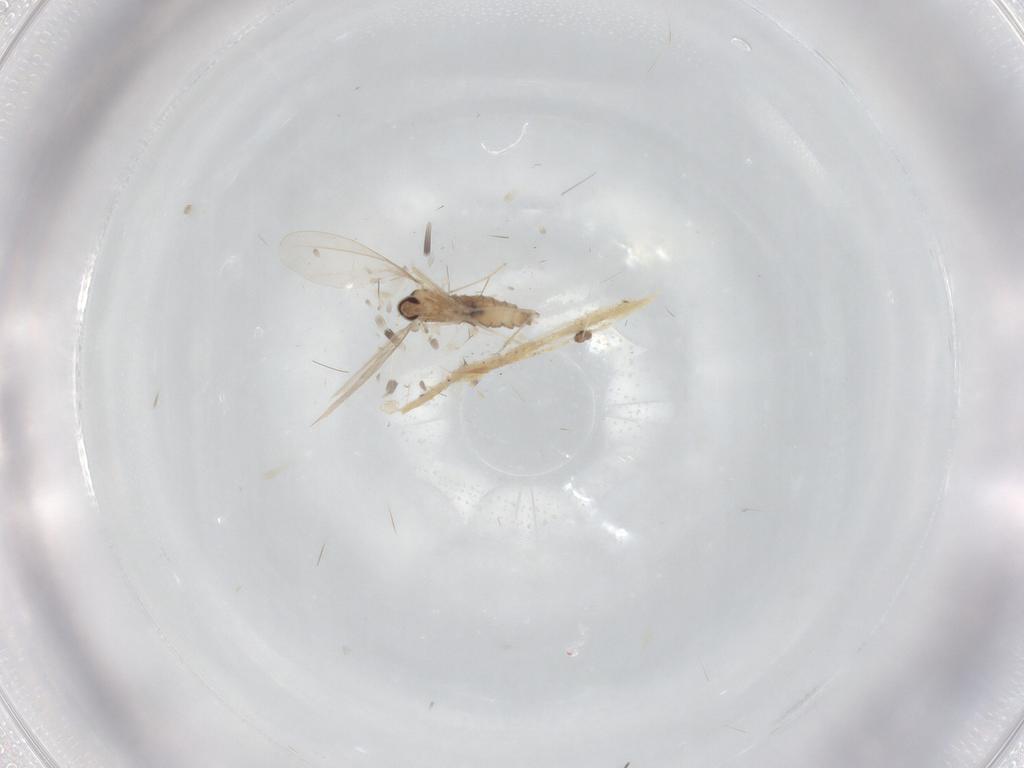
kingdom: Animalia
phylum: Arthropoda
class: Insecta
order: Diptera
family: Cecidomyiidae
